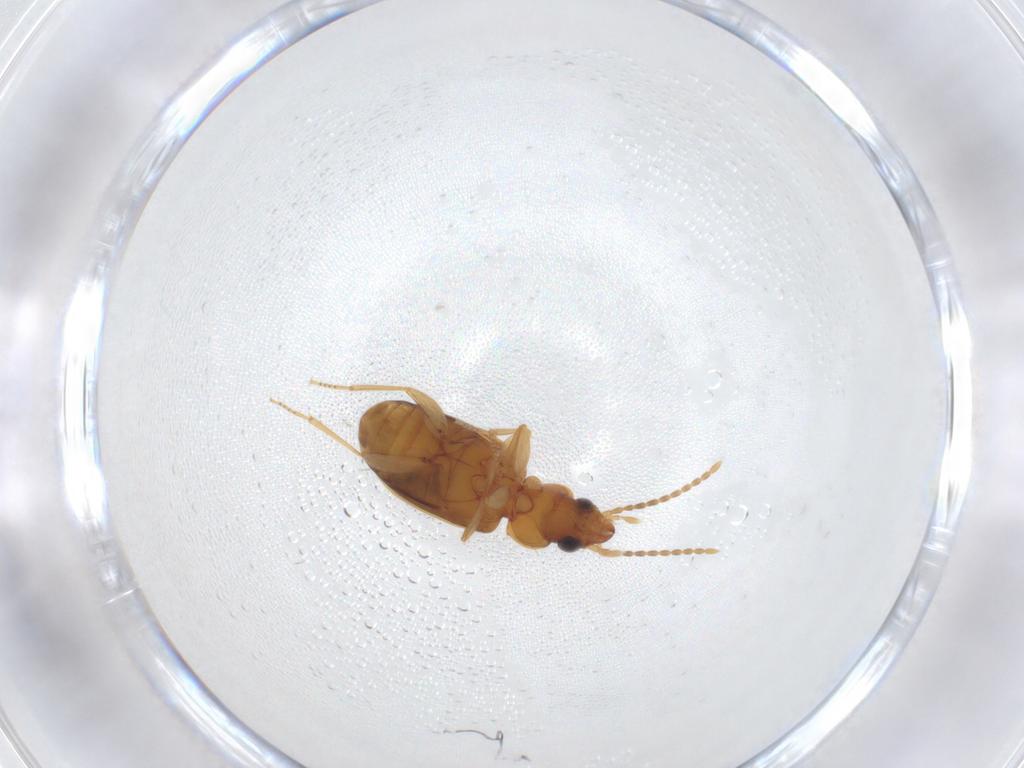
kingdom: Animalia
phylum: Arthropoda
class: Insecta
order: Coleoptera
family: Carabidae
